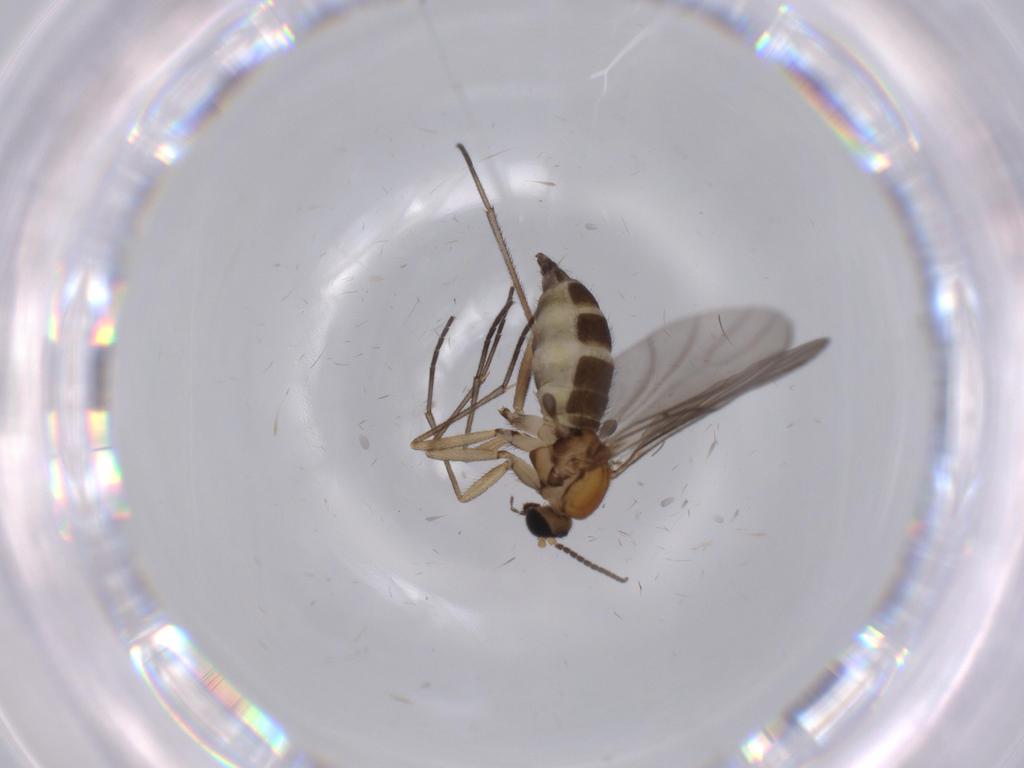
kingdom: Animalia
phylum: Arthropoda
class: Insecta
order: Diptera
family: Sciaridae
